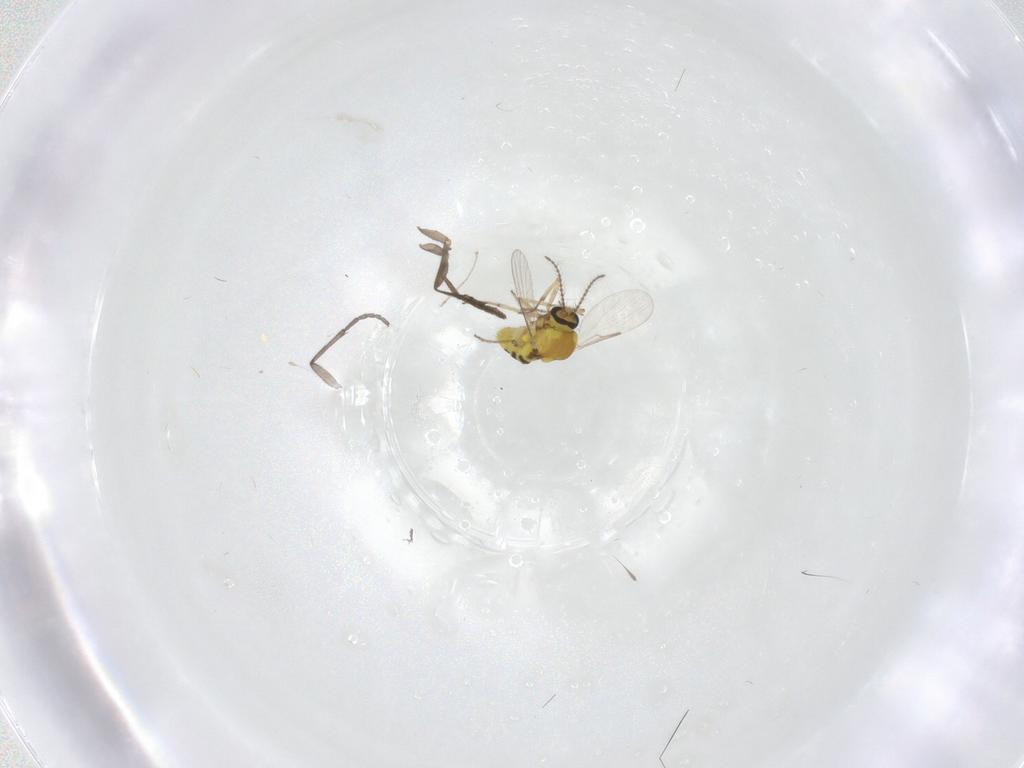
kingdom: Animalia
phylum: Arthropoda
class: Insecta
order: Diptera
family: Ceratopogonidae
